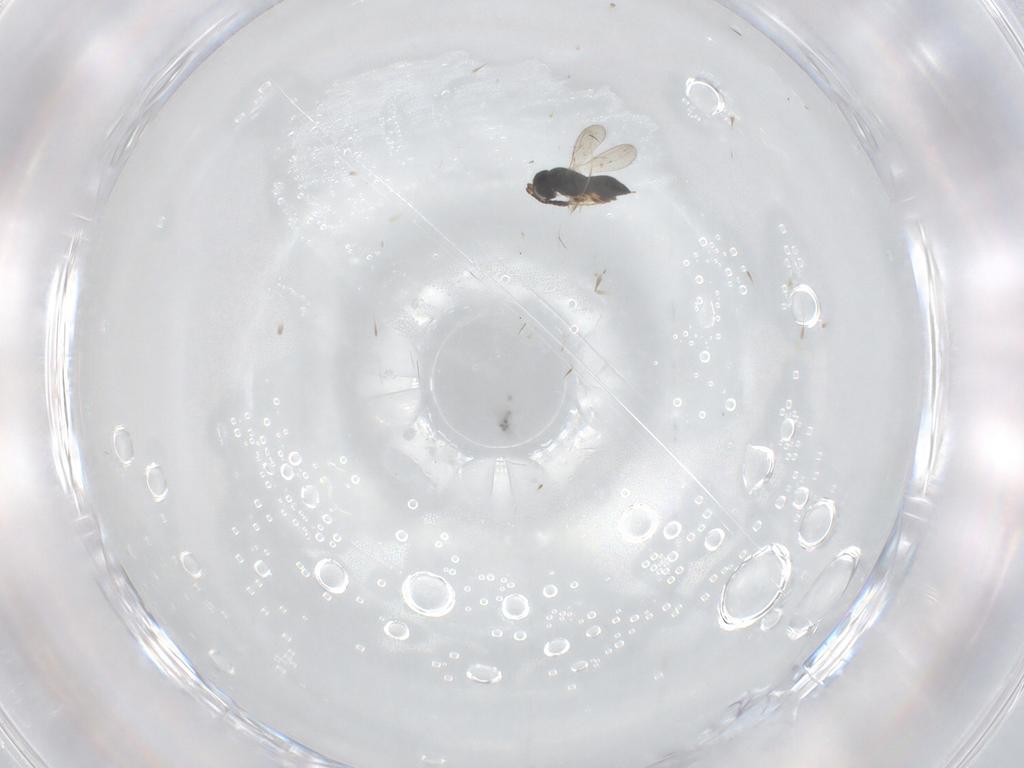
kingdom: Animalia
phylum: Arthropoda
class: Insecta
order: Hymenoptera
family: Scelionidae
